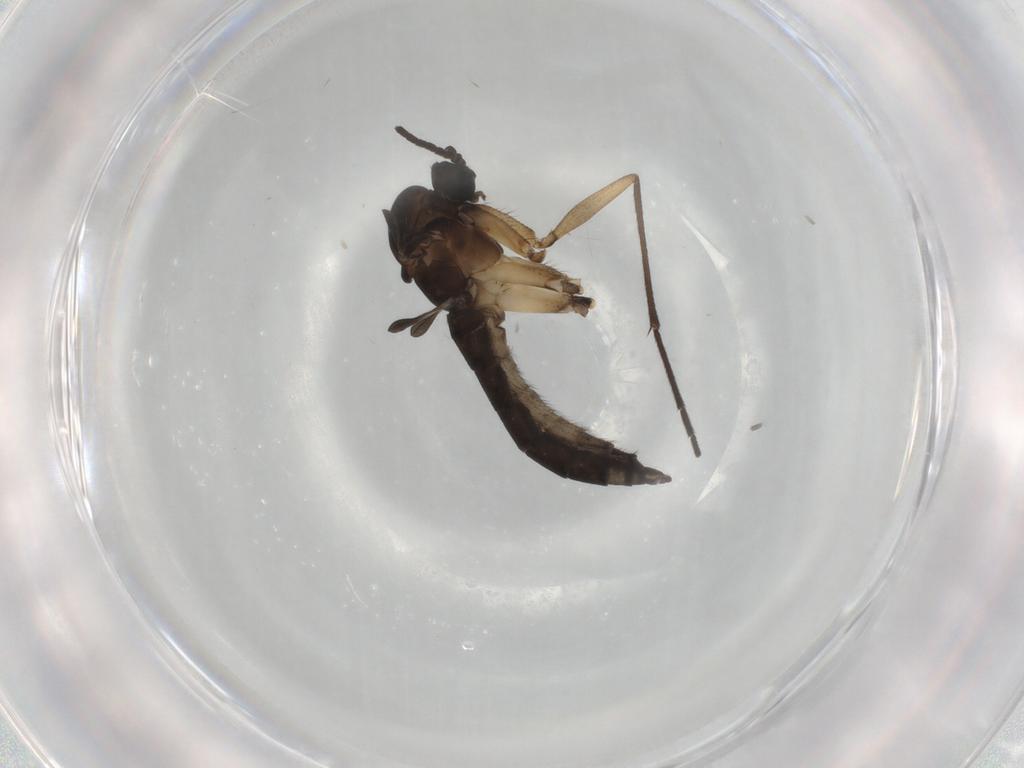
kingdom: Animalia
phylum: Arthropoda
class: Insecta
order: Diptera
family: Sciaridae
